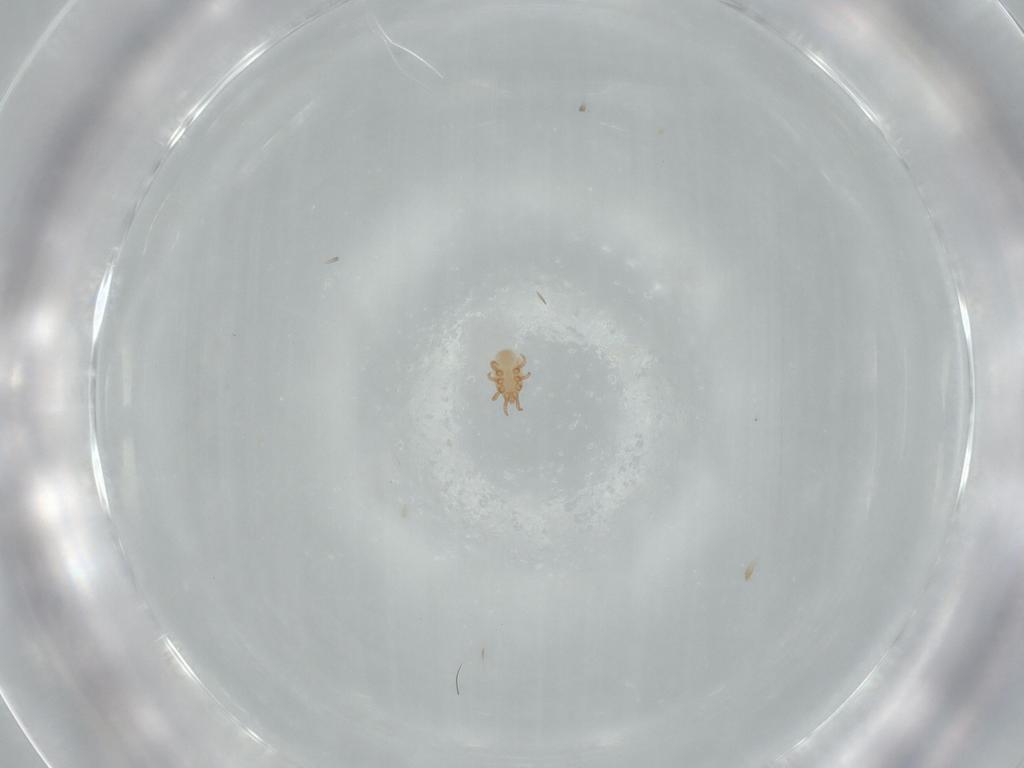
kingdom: Animalia
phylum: Arthropoda
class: Arachnida
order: Mesostigmata
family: Dinychidae
